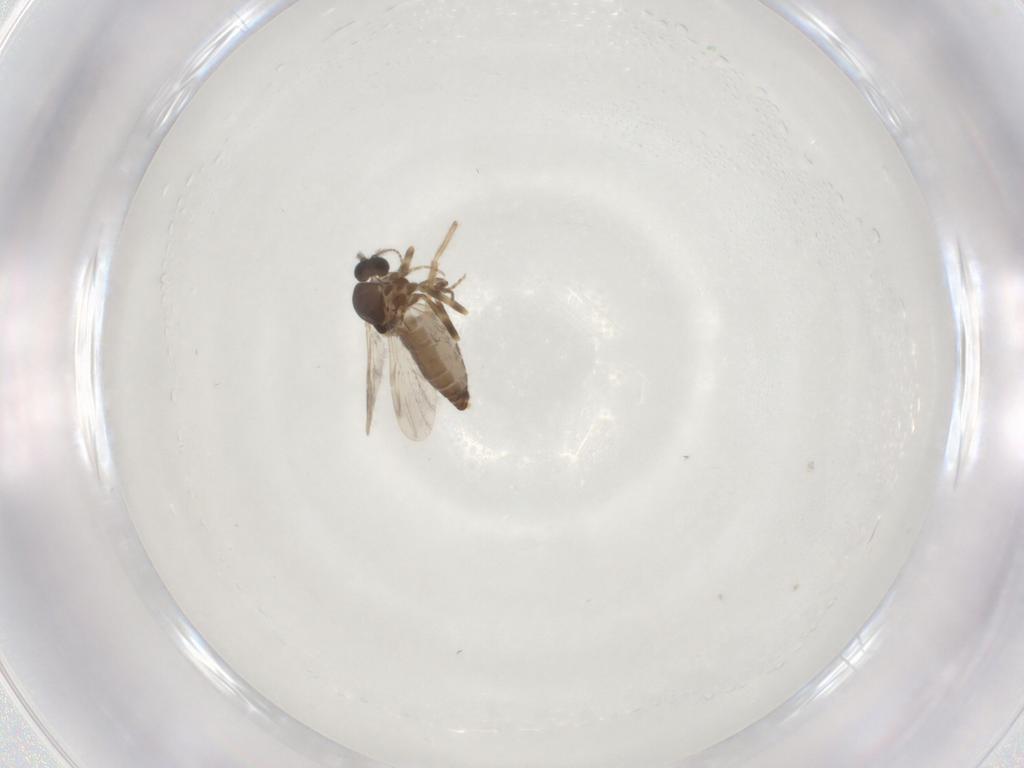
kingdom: Animalia
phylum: Arthropoda
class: Insecta
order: Diptera
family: Ceratopogonidae
